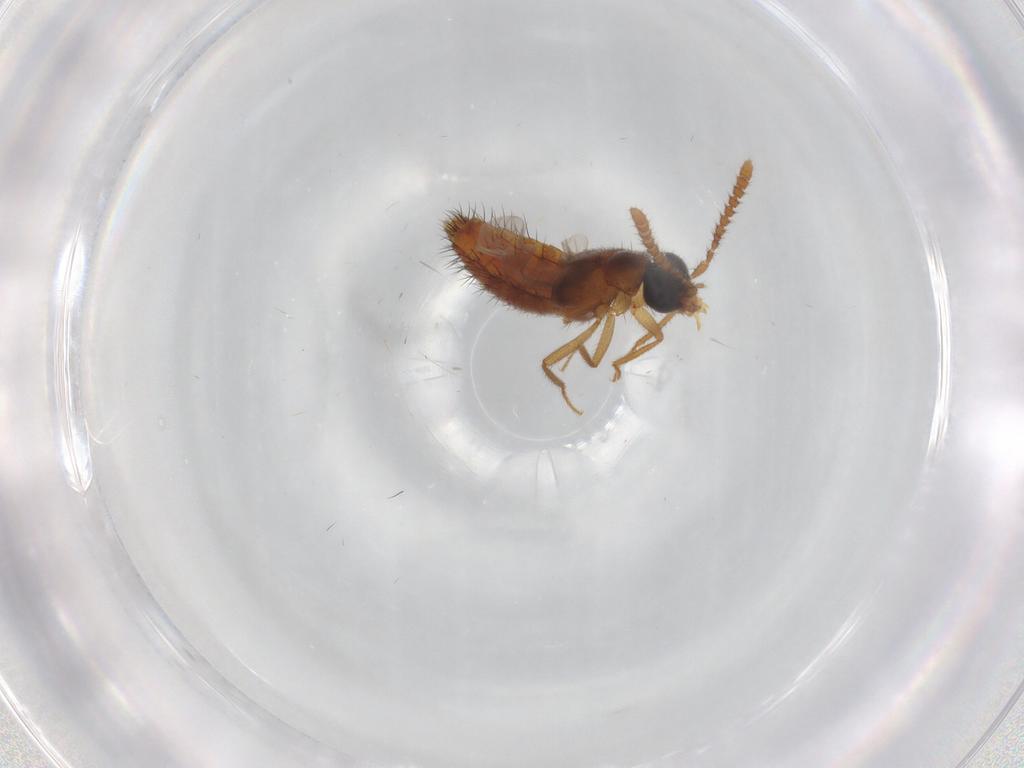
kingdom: Animalia
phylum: Arthropoda
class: Insecta
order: Coleoptera
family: Staphylinidae
